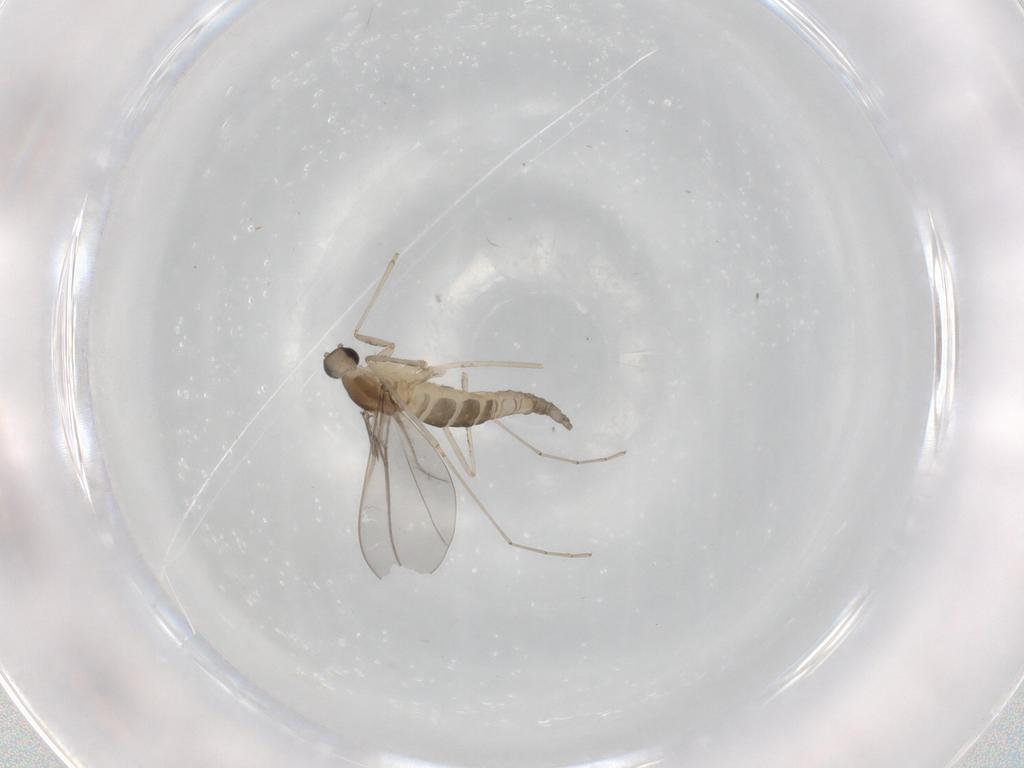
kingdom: Animalia
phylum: Arthropoda
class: Insecta
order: Diptera
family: Cecidomyiidae
